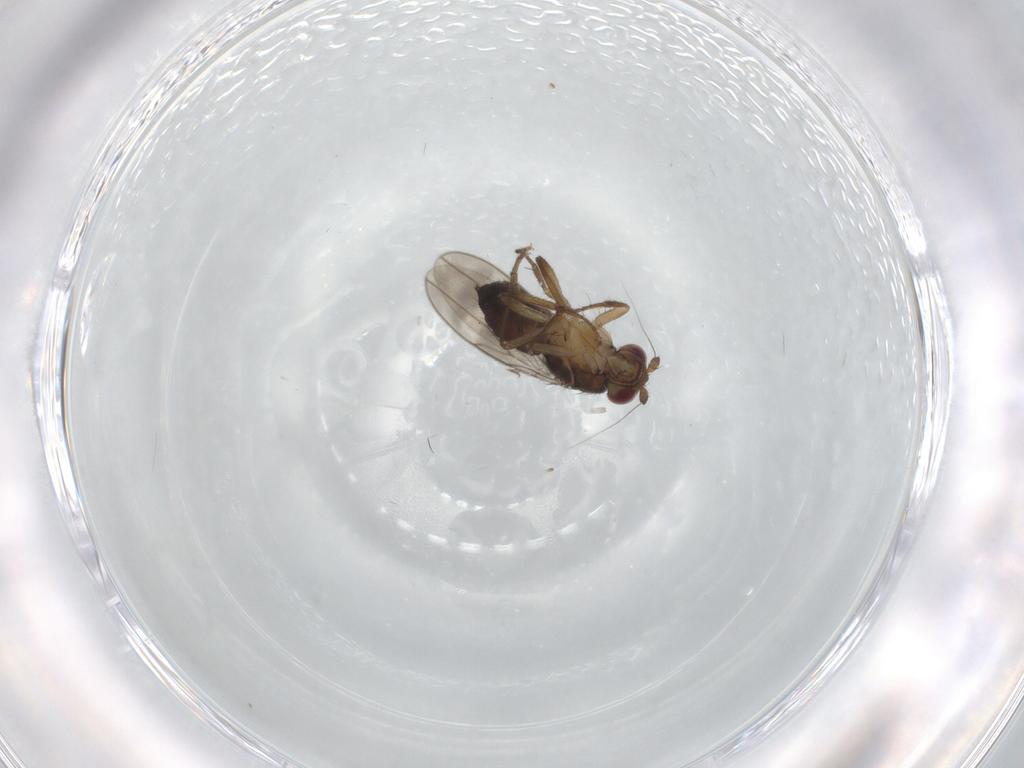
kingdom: Animalia
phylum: Arthropoda
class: Insecta
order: Diptera
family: Sphaeroceridae
